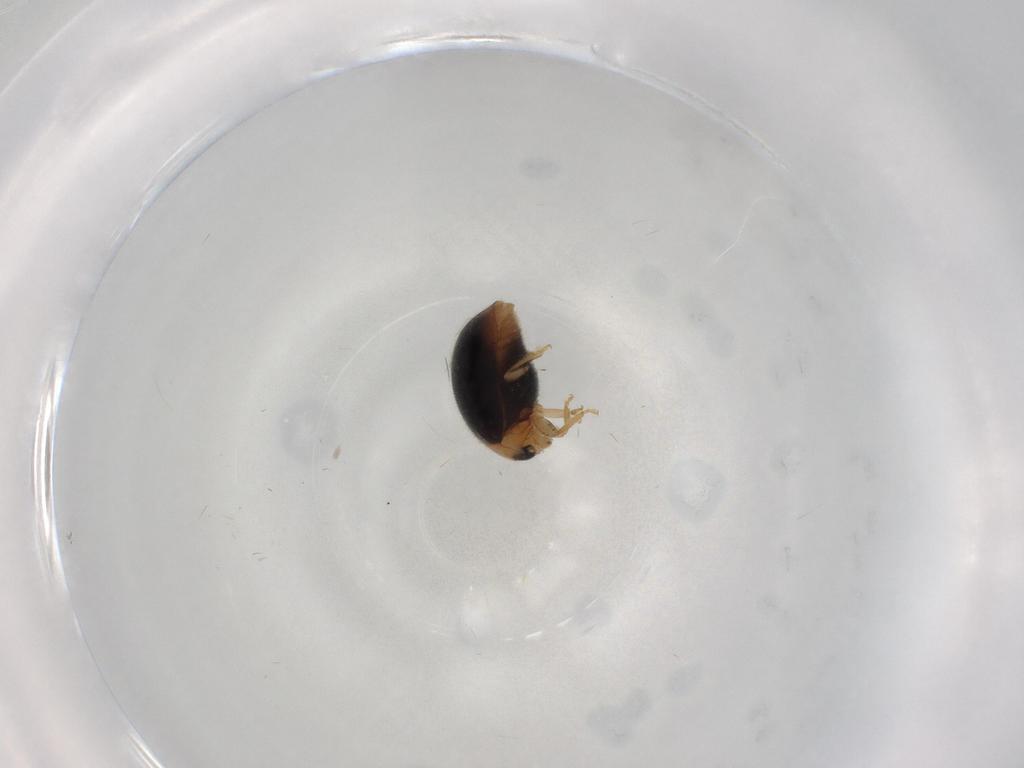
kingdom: Animalia
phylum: Arthropoda
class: Insecta
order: Coleoptera
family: Coccinellidae
